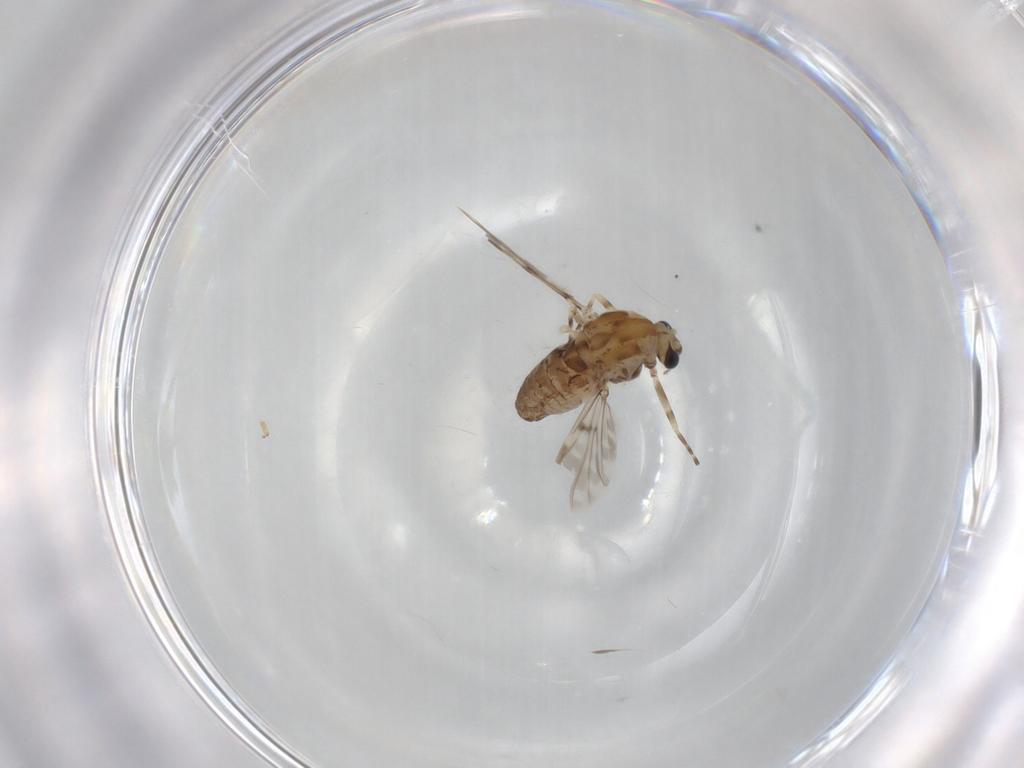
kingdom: Animalia
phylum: Arthropoda
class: Insecta
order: Diptera
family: Chironomidae
